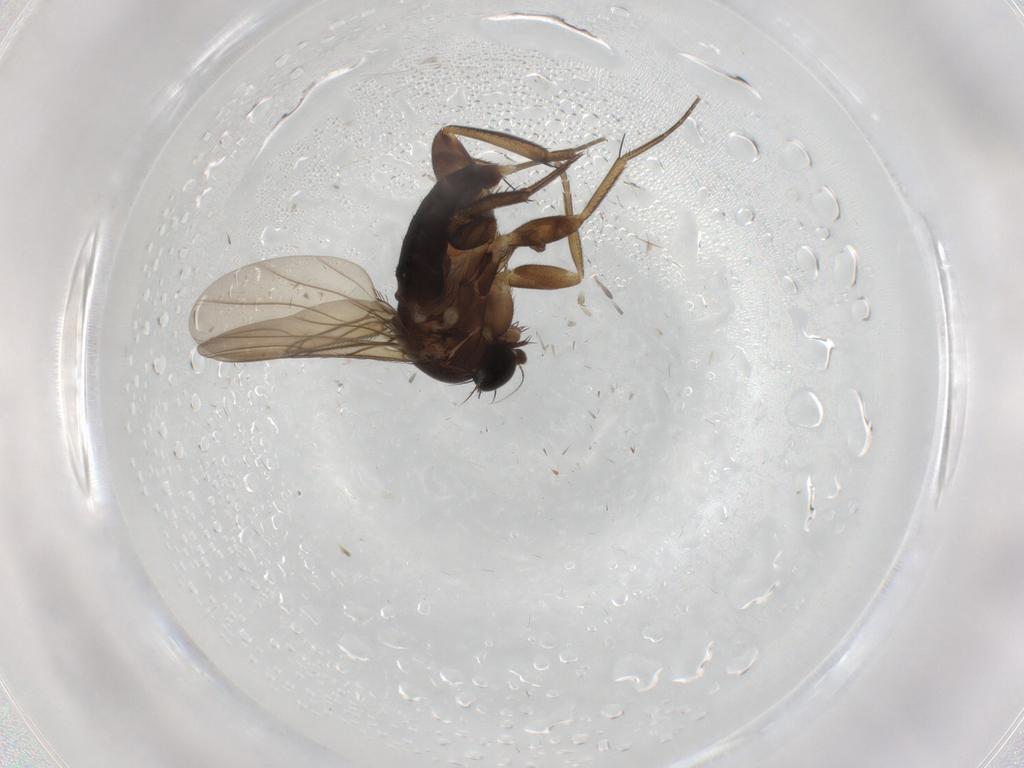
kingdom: Animalia
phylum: Arthropoda
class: Insecta
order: Diptera
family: Phoridae
